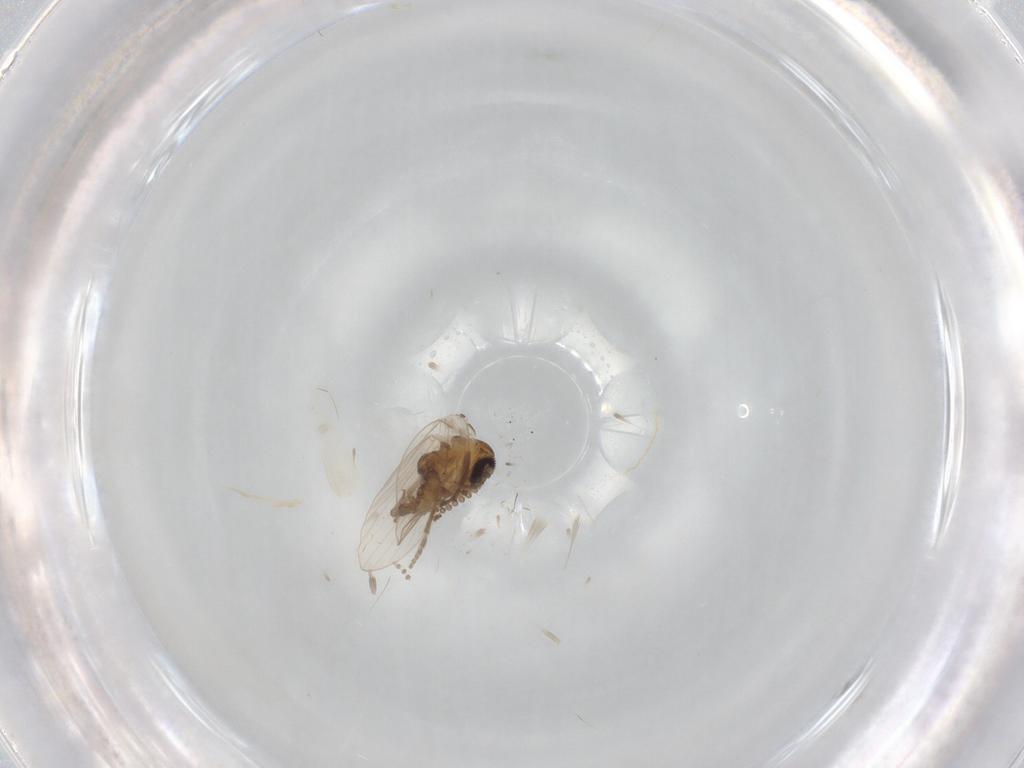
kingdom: Animalia
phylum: Arthropoda
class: Insecta
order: Diptera
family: Psychodidae
